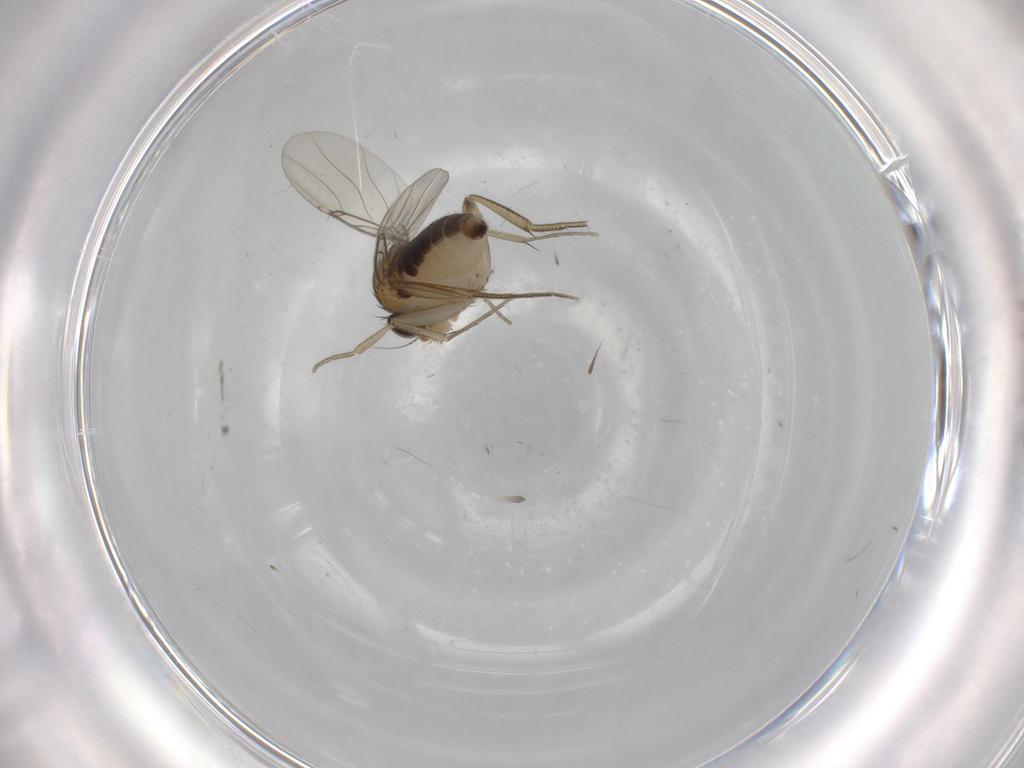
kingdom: Animalia
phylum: Arthropoda
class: Insecta
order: Diptera
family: Phoridae
